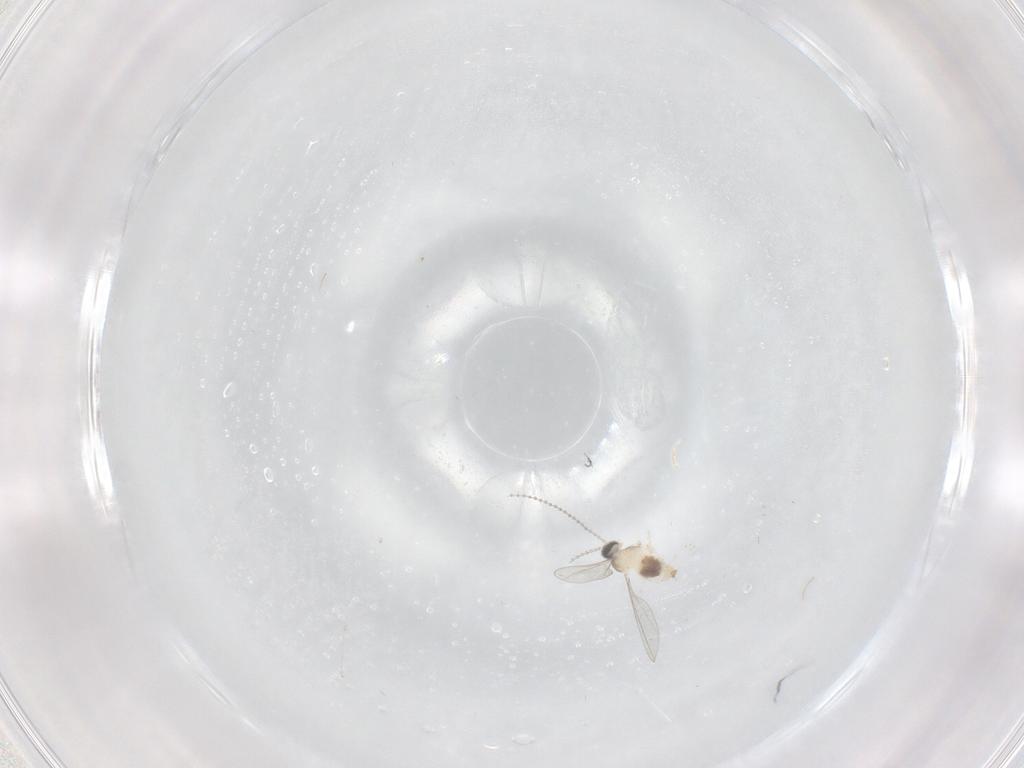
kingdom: Animalia
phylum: Arthropoda
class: Insecta
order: Diptera
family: Cecidomyiidae
